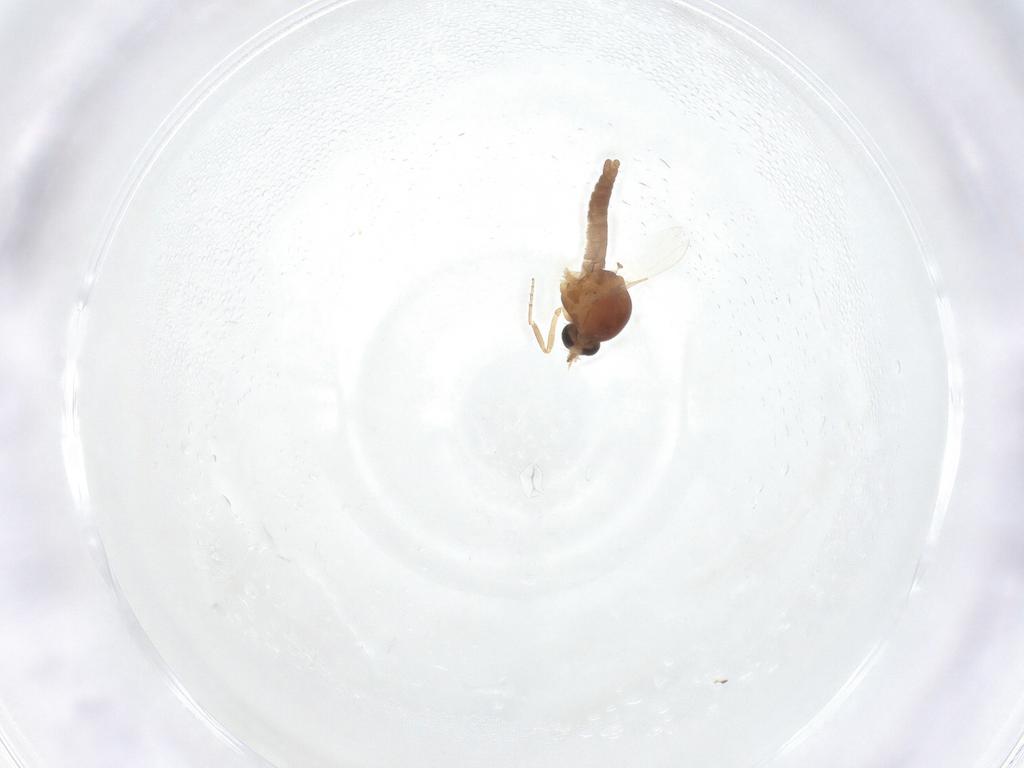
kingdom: Animalia
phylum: Arthropoda
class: Insecta
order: Diptera
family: Ceratopogonidae
